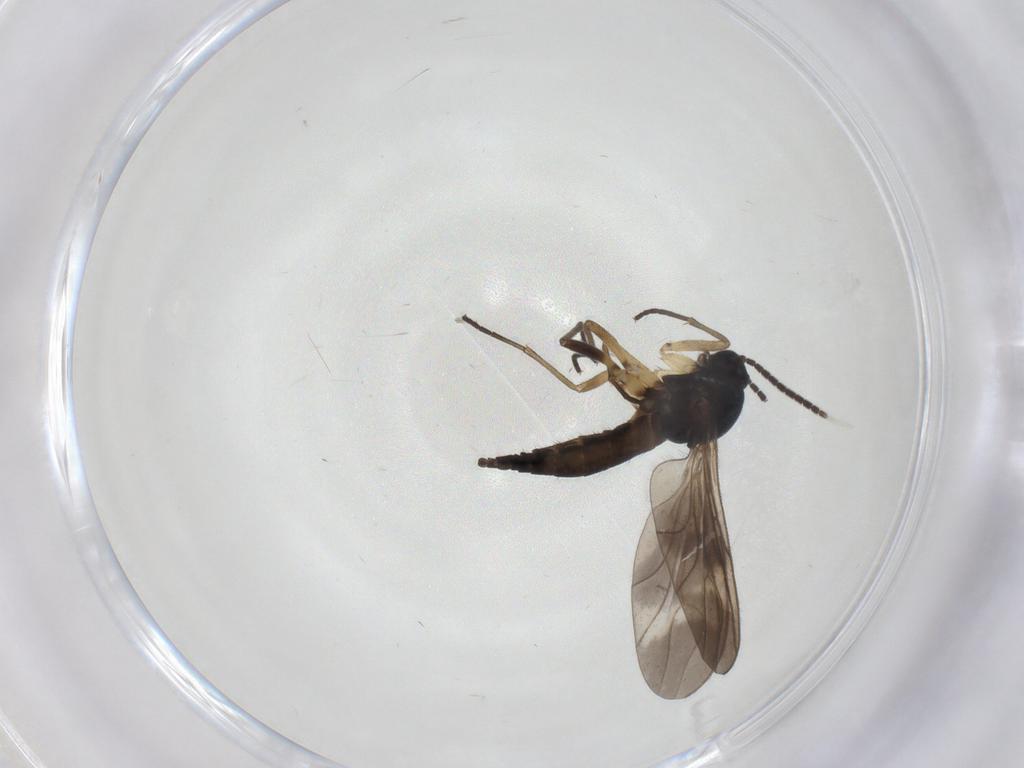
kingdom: Animalia
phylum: Arthropoda
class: Insecta
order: Diptera
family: Sciaridae
